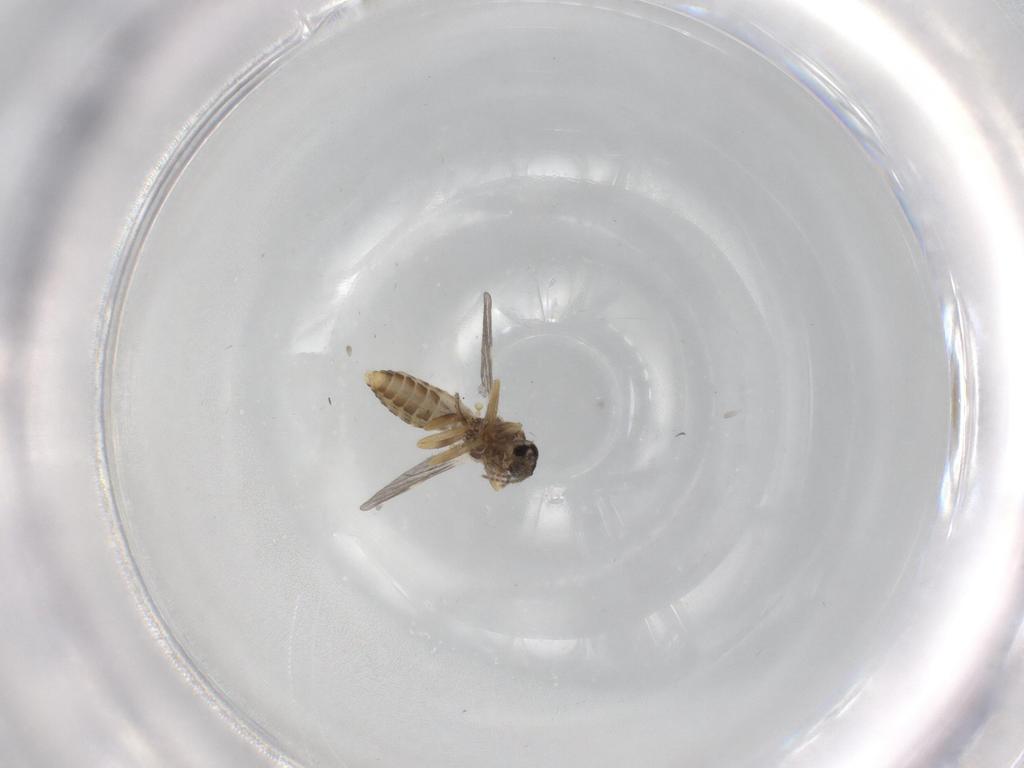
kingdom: Animalia
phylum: Arthropoda
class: Insecta
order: Diptera
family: Ceratopogonidae
